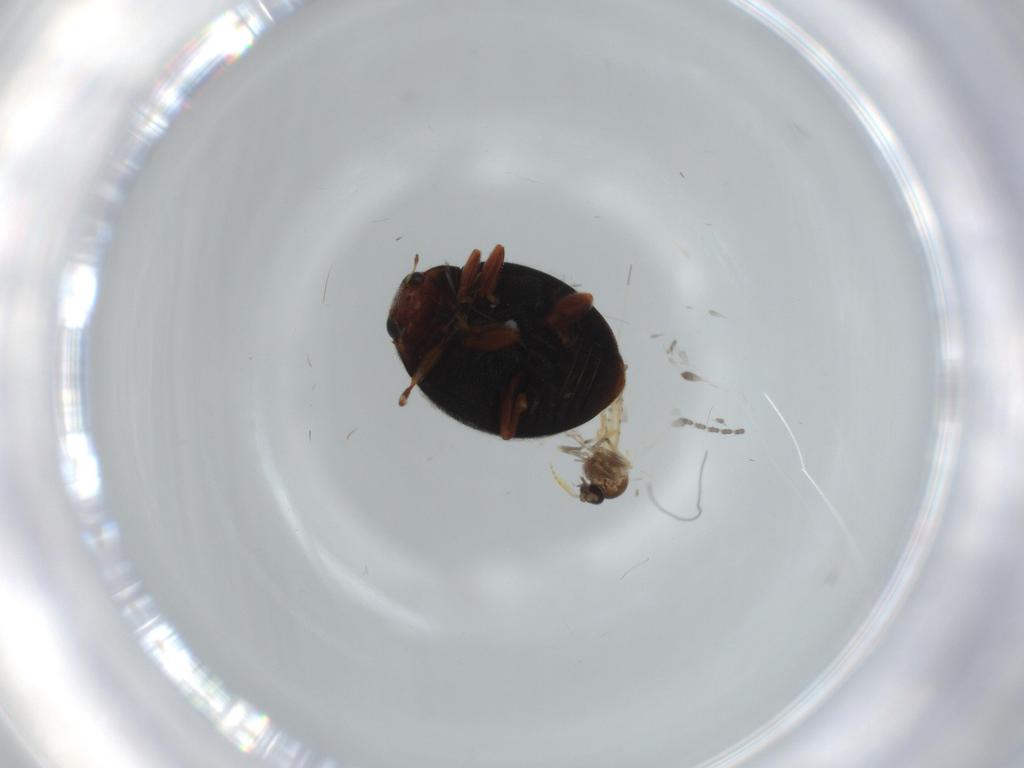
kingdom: Animalia
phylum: Arthropoda
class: Insecta
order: Coleoptera
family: Coccinellidae
